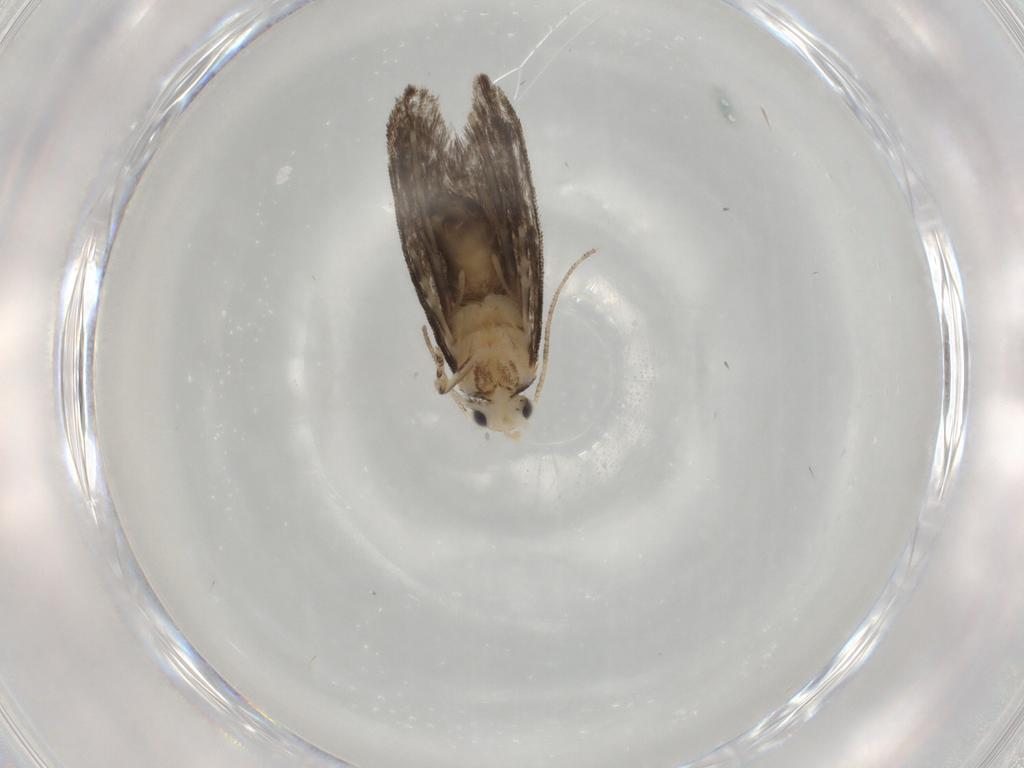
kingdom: Animalia
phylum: Arthropoda
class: Insecta
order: Lepidoptera
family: Tineidae
